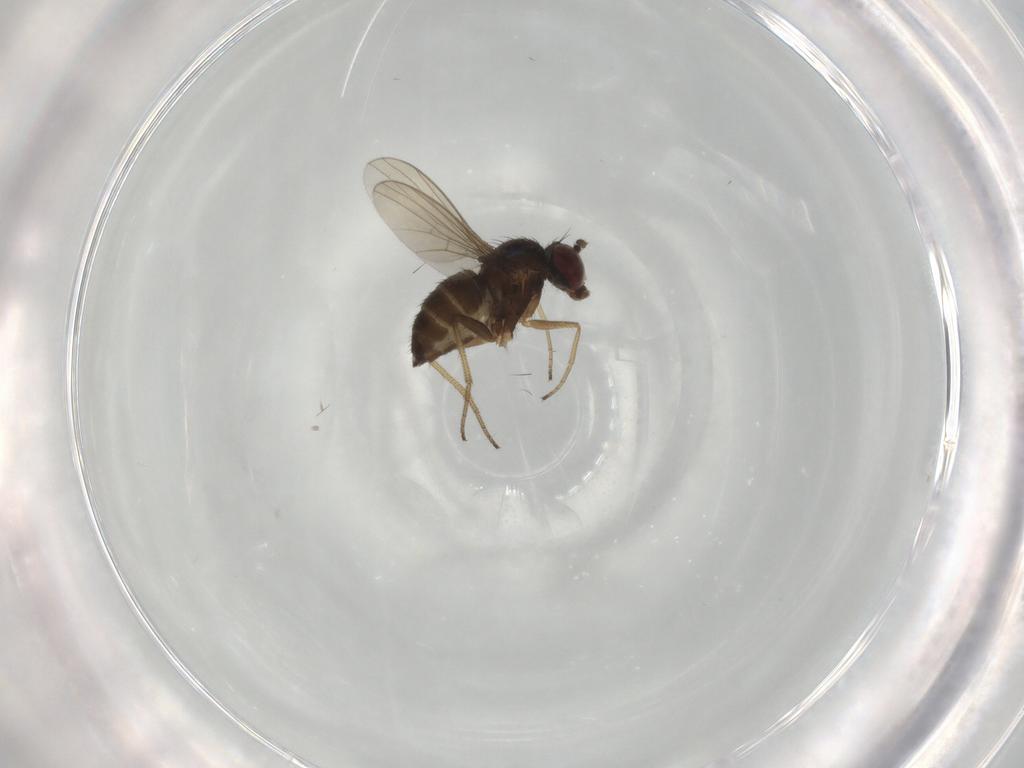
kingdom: Animalia
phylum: Arthropoda
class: Insecta
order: Diptera
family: Dolichopodidae
